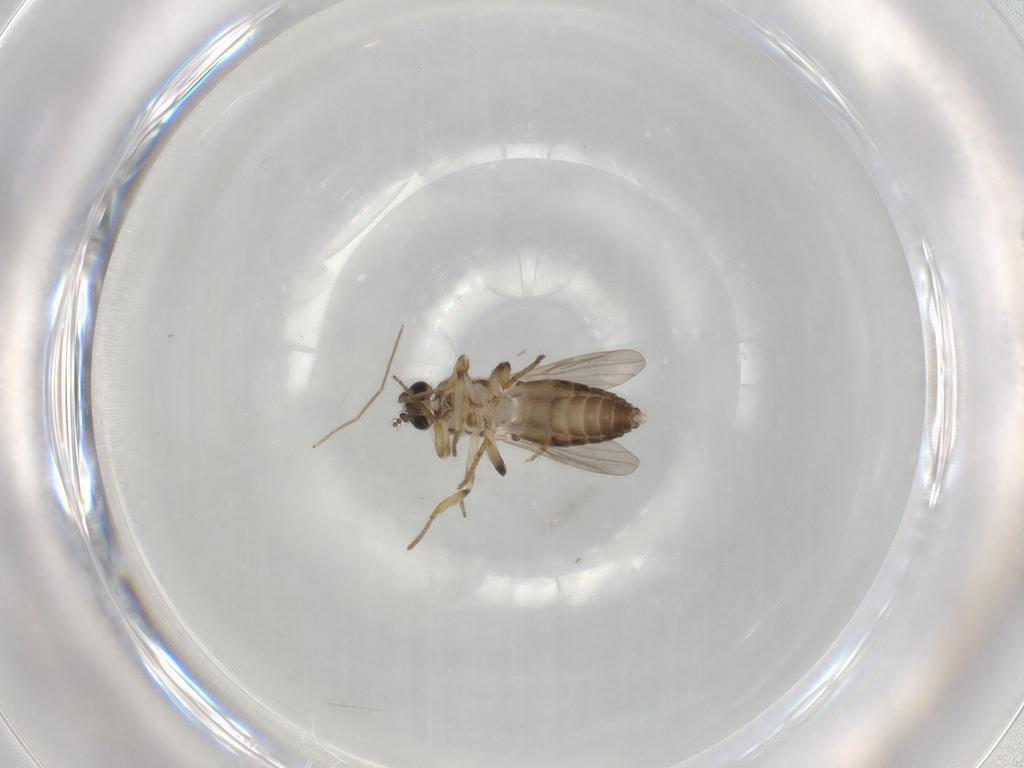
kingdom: Animalia
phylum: Arthropoda
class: Insecta
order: Diptera
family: Ceratopogonidae
